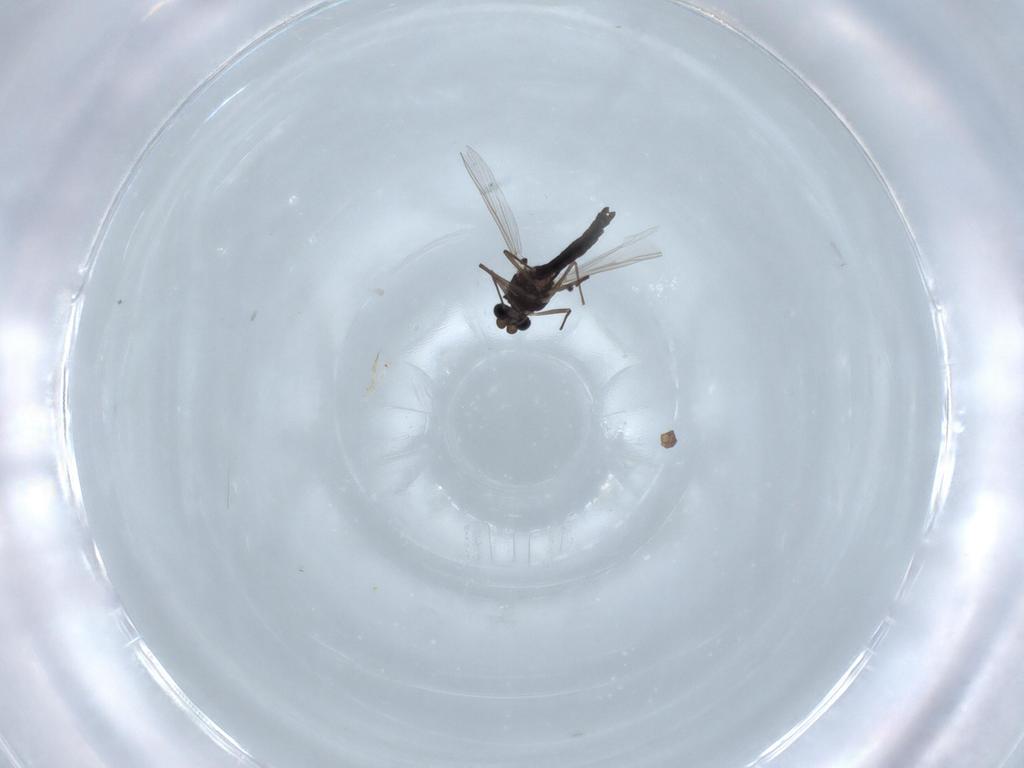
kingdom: Animalia
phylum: Arthropoda
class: Insecta
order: Diptera
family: Chironomidae
